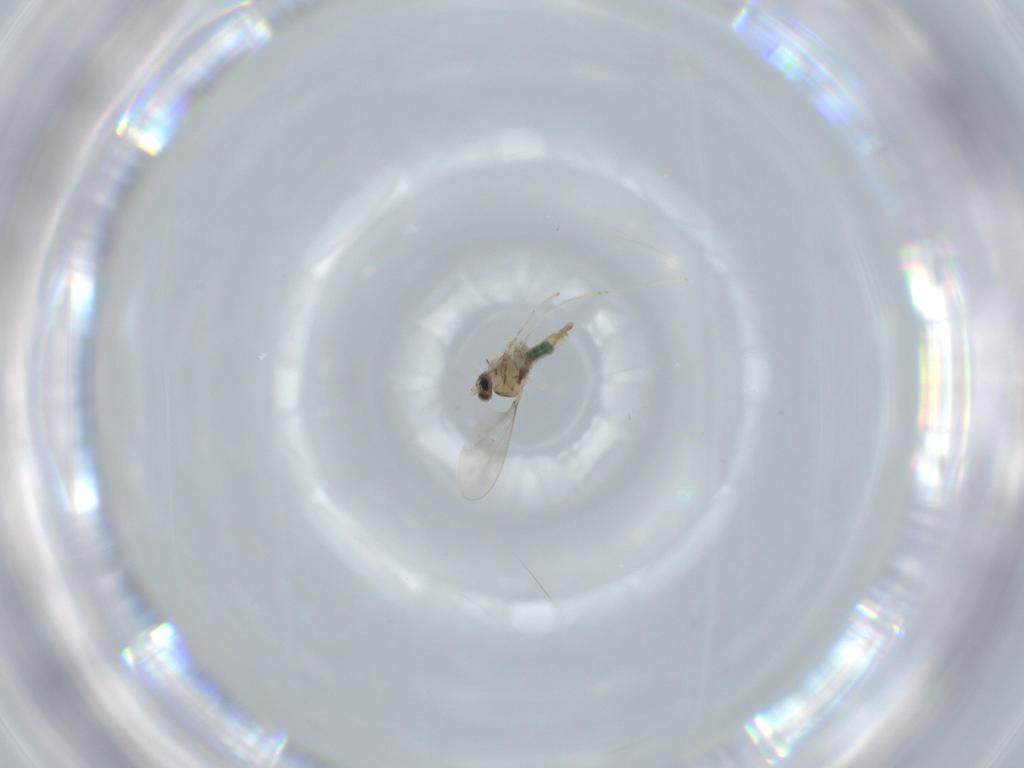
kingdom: Animalia
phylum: Arthropoda
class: Insecta
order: Diptera
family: Cecidomyiidae
